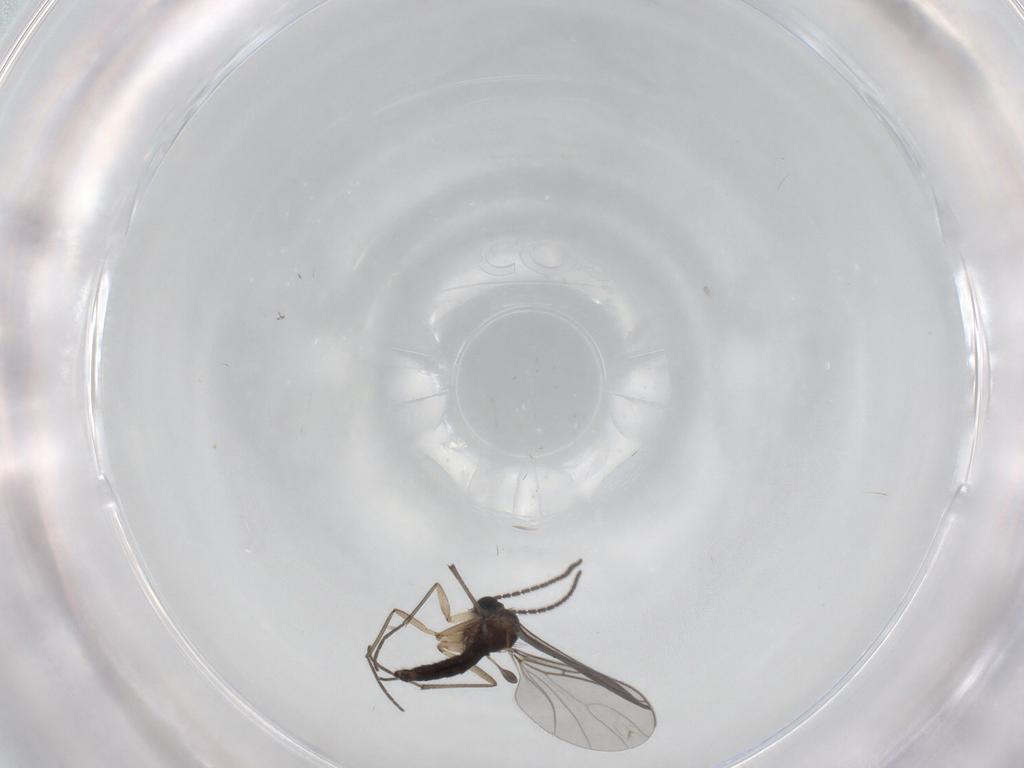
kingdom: Animalia
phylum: Arthropoda
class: Insecta
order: Diptera
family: Sciaridae
